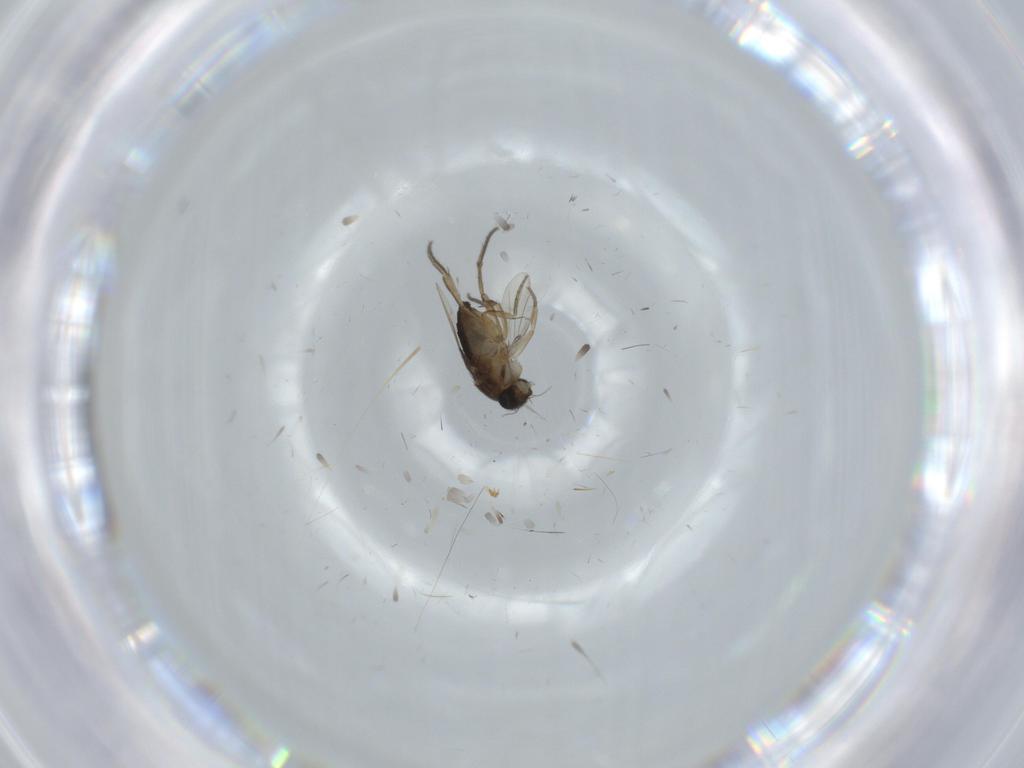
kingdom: Animalia
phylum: Arthropoda
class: Insecta
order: Diptera
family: Phoridae
